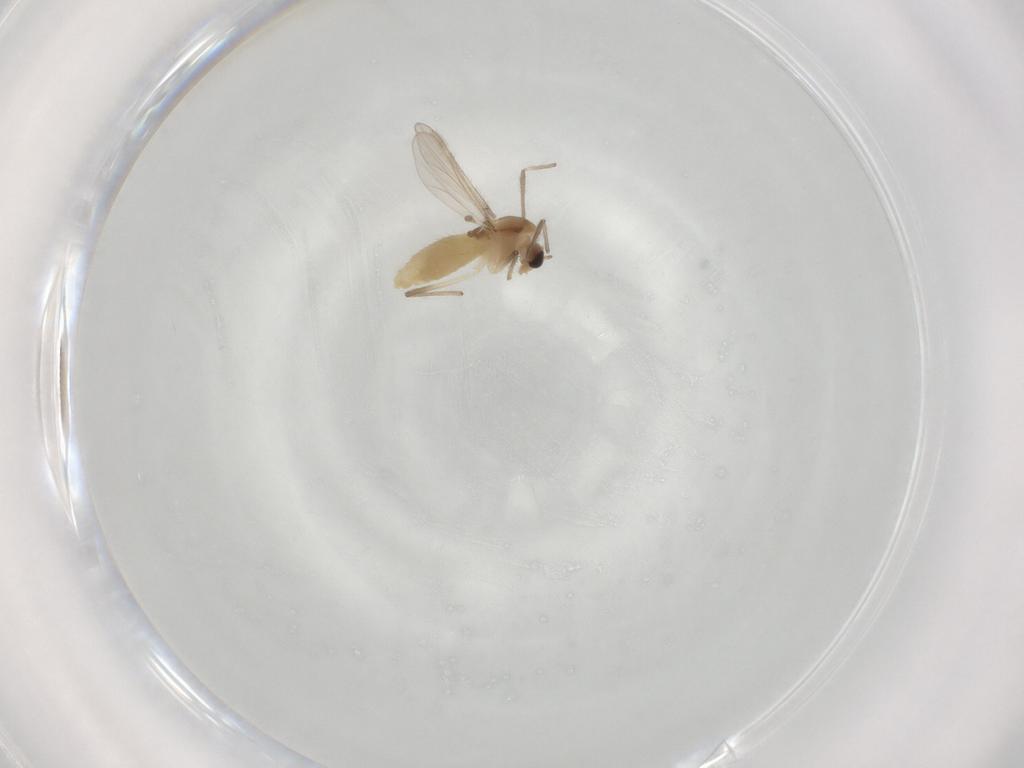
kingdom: Animalia
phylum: Arthropoda
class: Insecta
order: Diptera
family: Chironomidae
